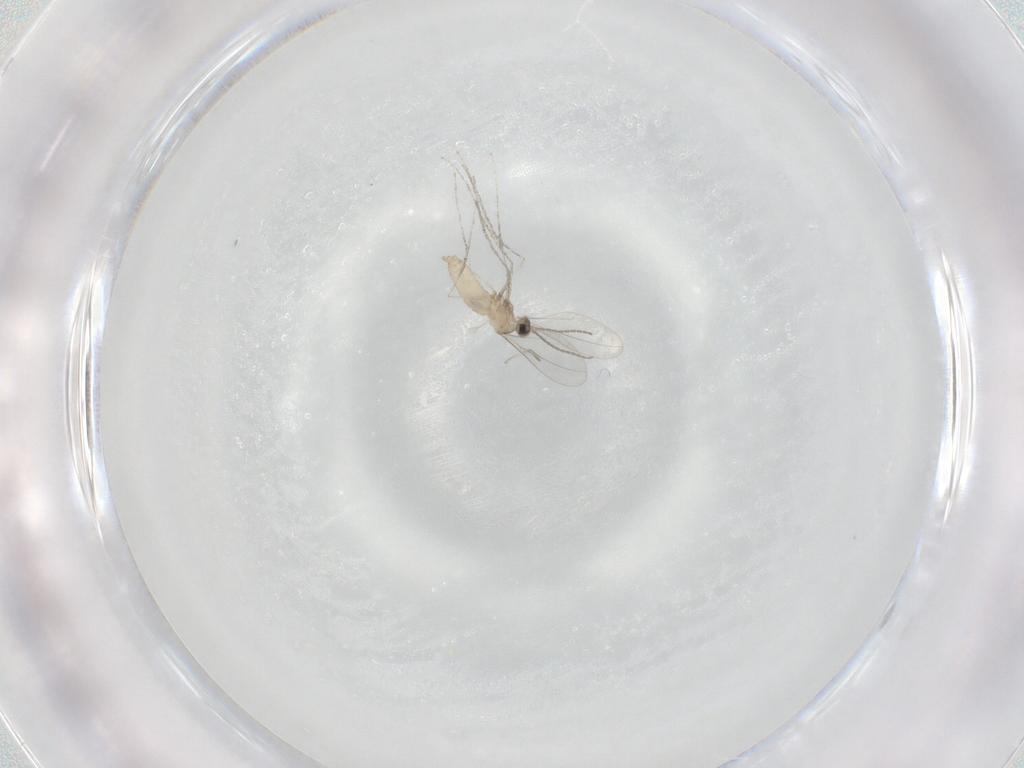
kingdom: Animalia
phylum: Arthropoda
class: Insecta
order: Diptera
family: Cecidomyiidae
